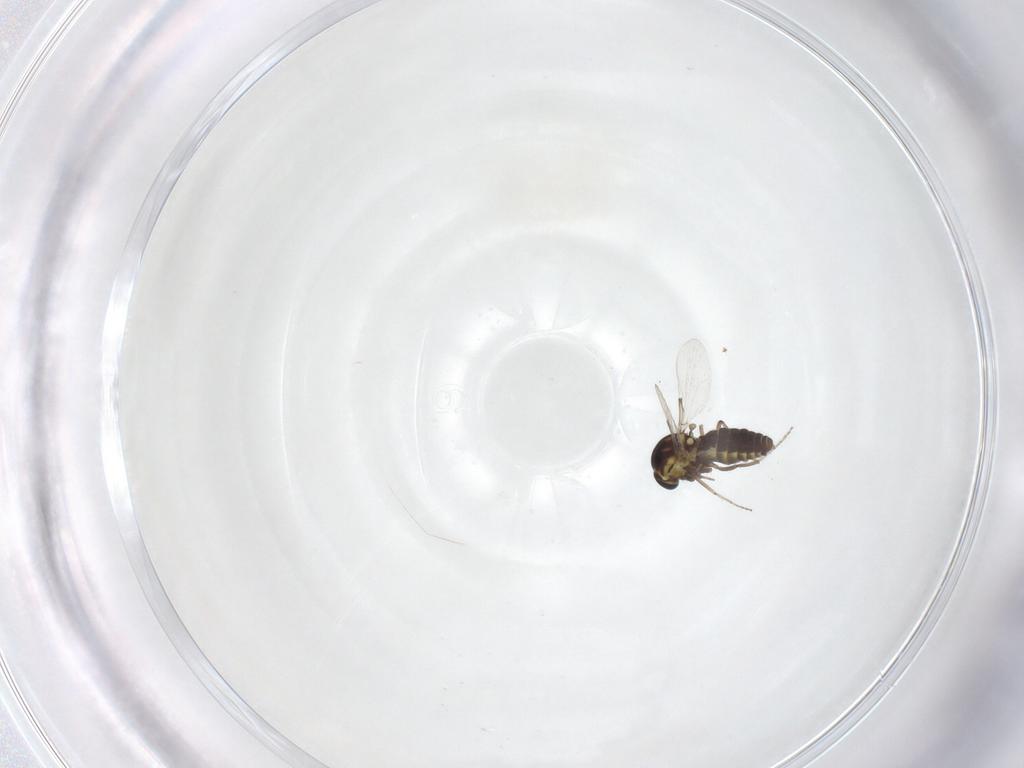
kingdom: Animalia
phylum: Arthropoda
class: Insecta
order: Diptera
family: Ceratopogonidae
